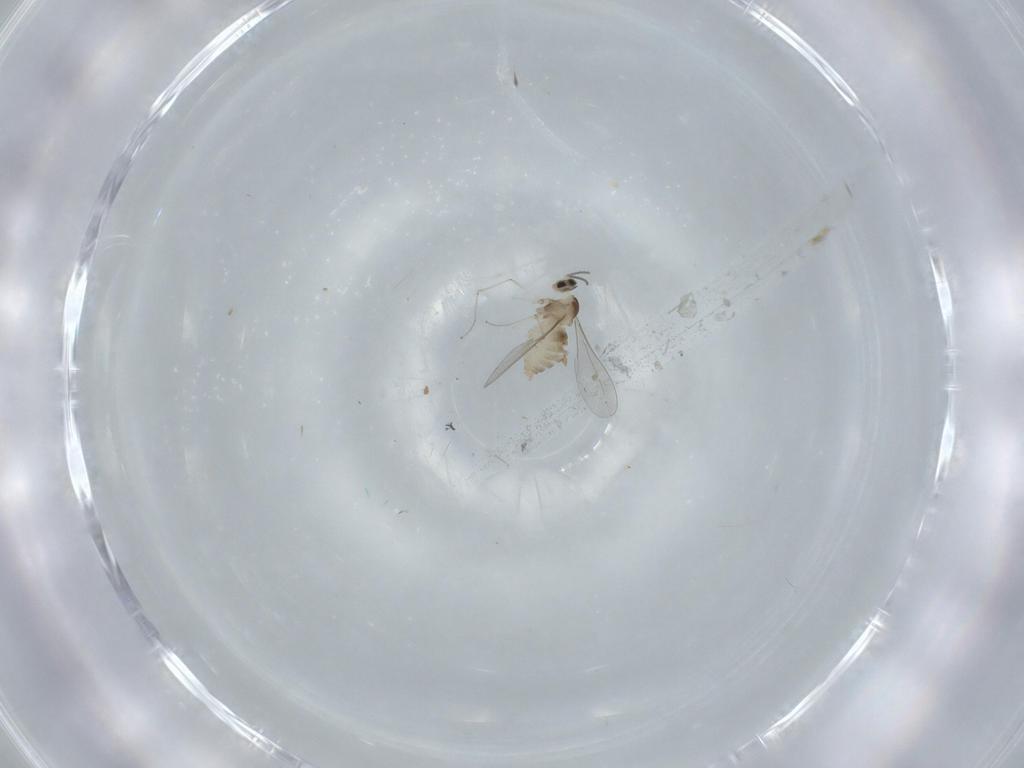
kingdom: Animalia
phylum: Arthropoda
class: Insecta
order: Diptera
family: Cecidomyiidae
